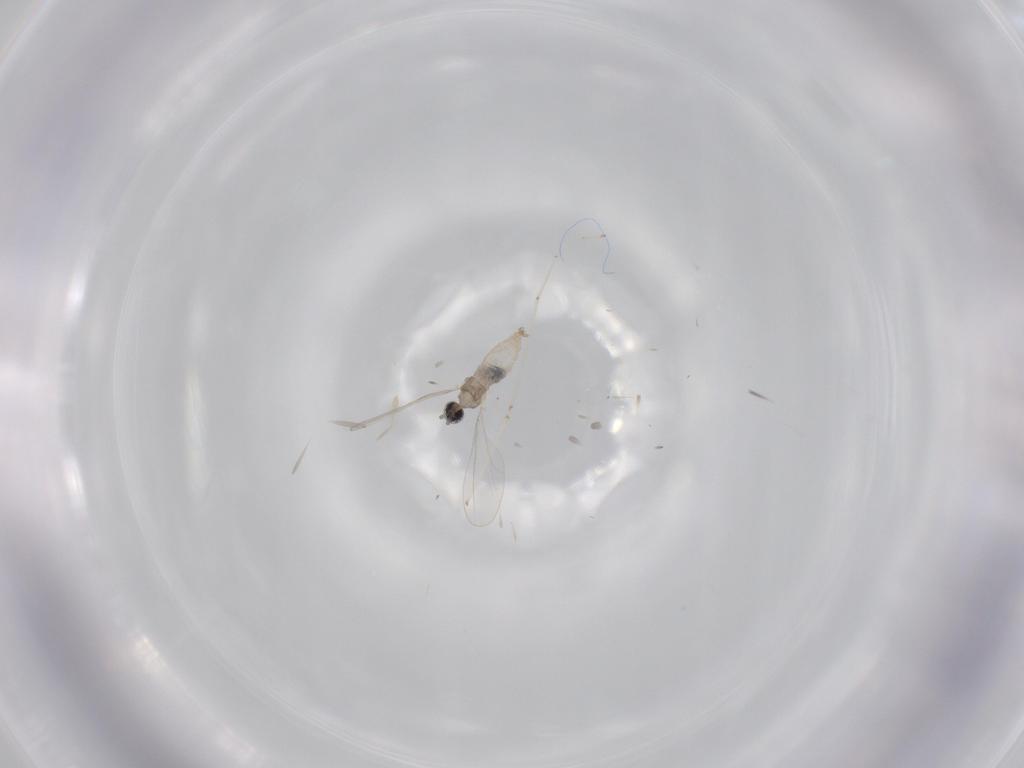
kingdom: Animalia
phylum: Arthropoda
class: Insecta
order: Diptera
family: Cecidomyiidae
